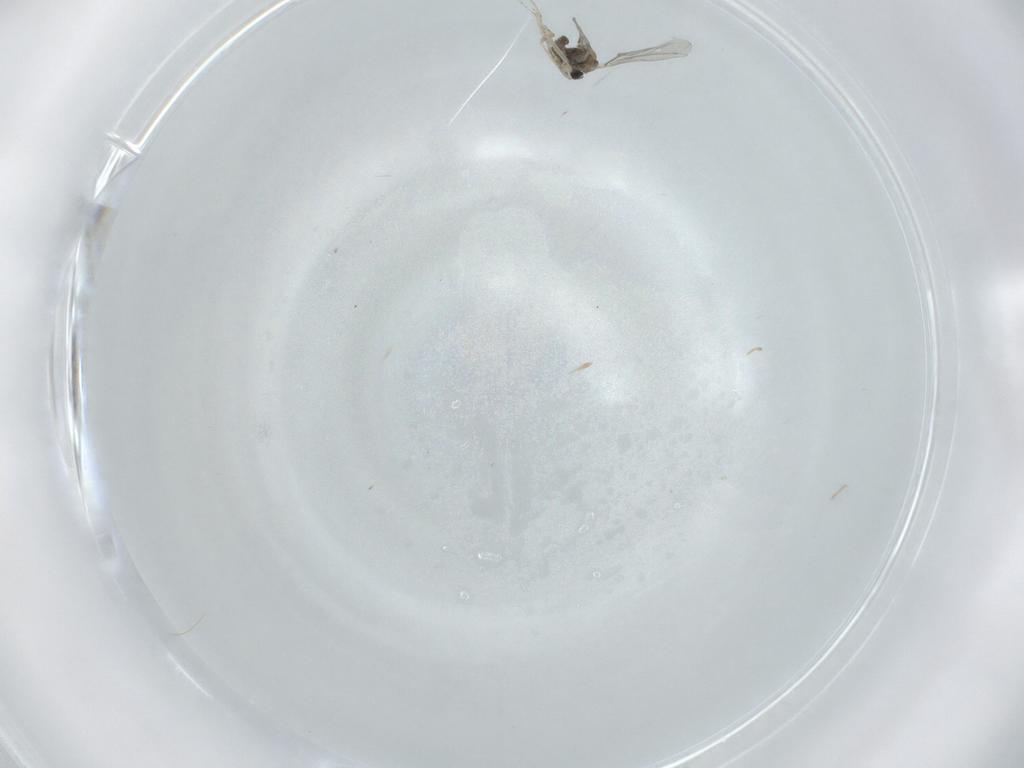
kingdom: Animalia
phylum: Arthropoda
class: Insecta
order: Diptera
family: Cecidomyiidae
